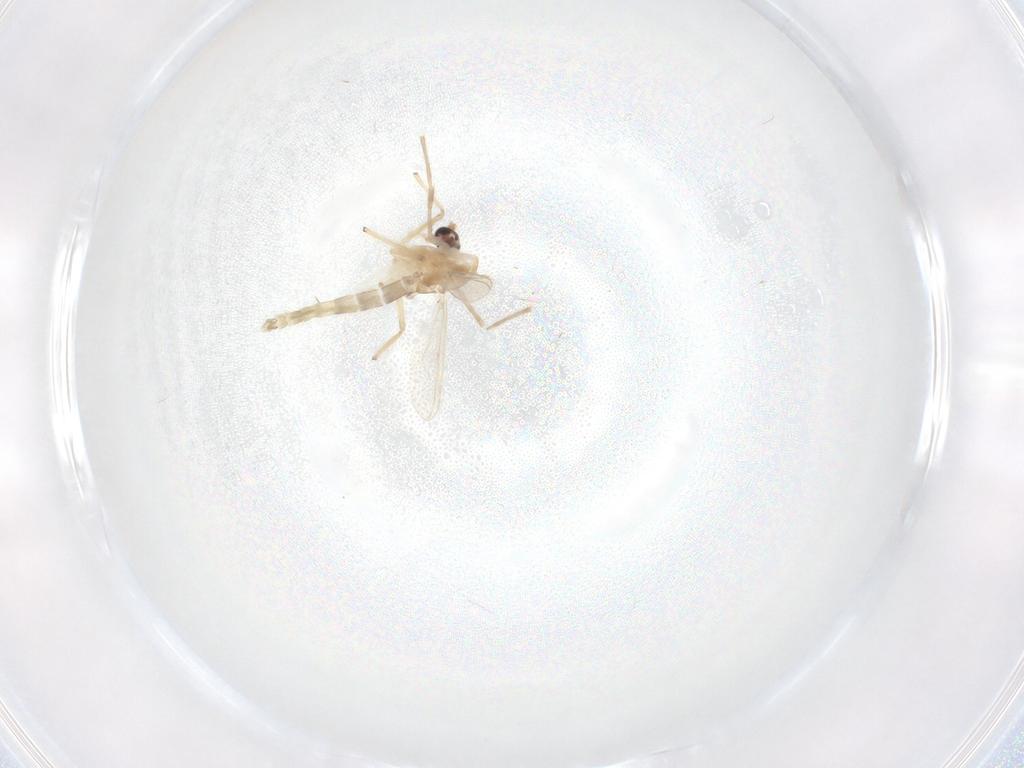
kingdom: Animalia
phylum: Arthropoda
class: Insecta
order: Diptera
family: Chironomidae
